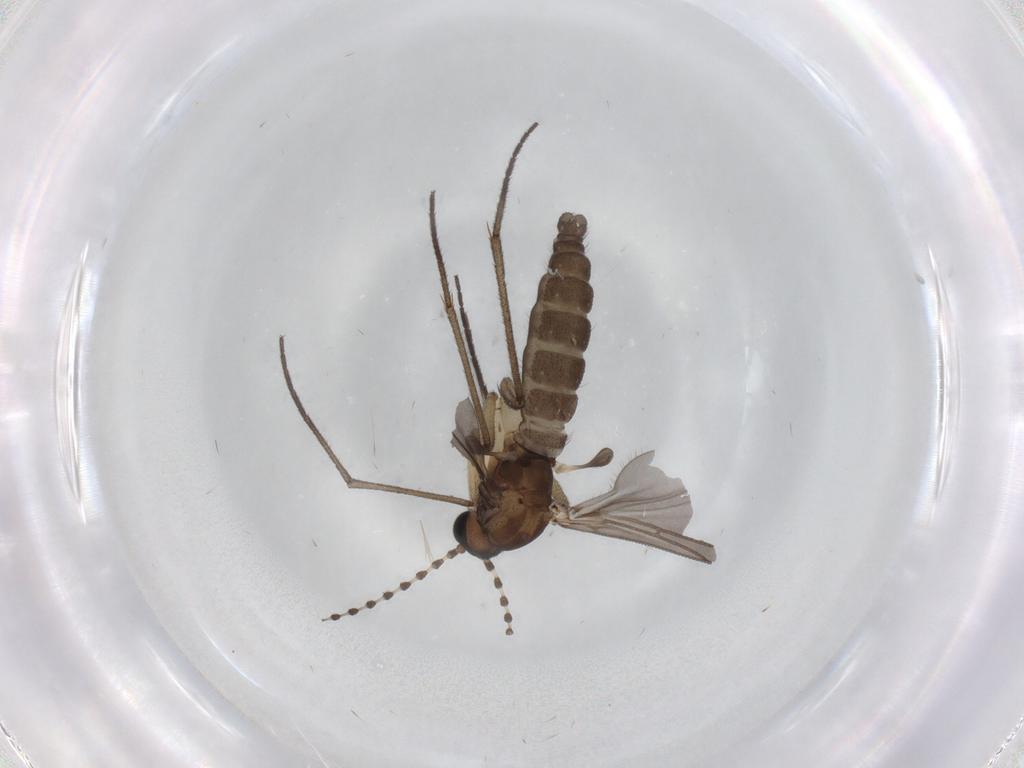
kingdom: Animalia
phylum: Arthropoda
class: Insecta
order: Diptera
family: Sciaridae
